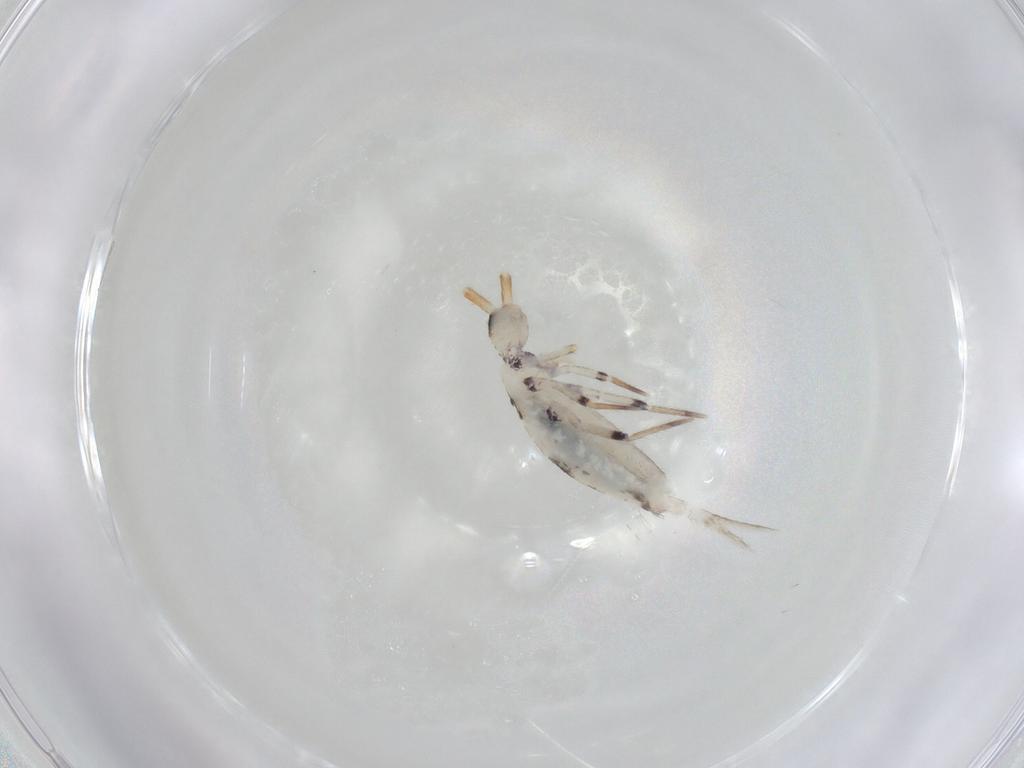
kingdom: Animalia
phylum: Arthropoda
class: Insecta
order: Diptera
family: Cecidomyiidae
